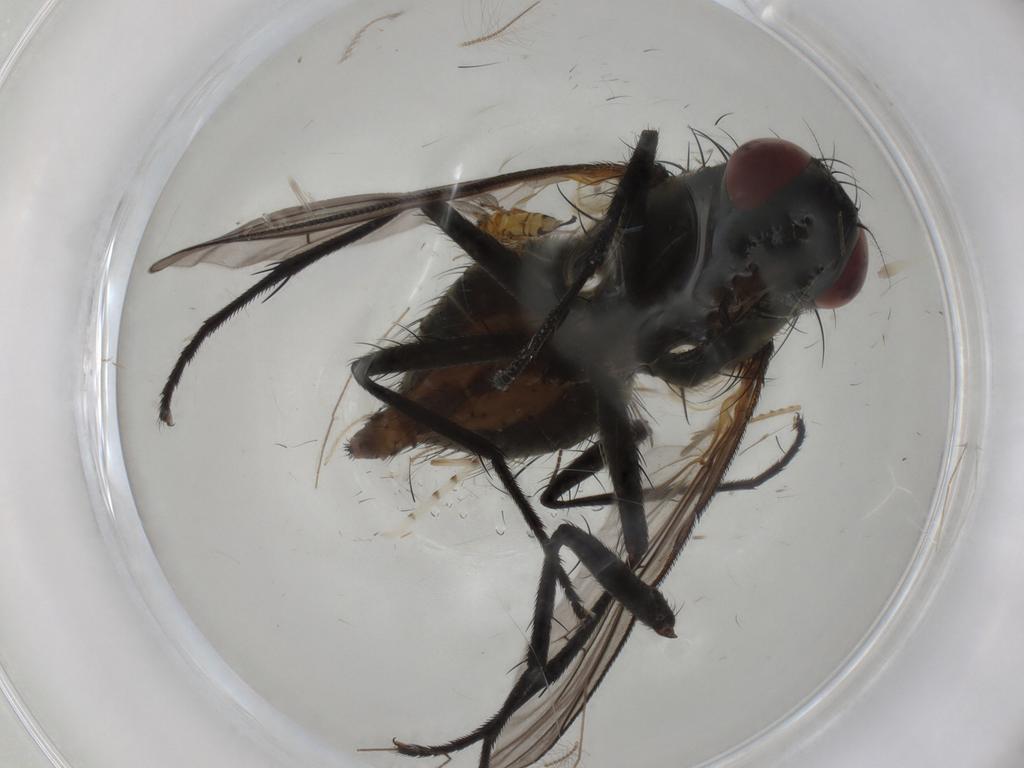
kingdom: Animalia
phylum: Arthropoda
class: Insecta
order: Diptera
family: Muscidae
